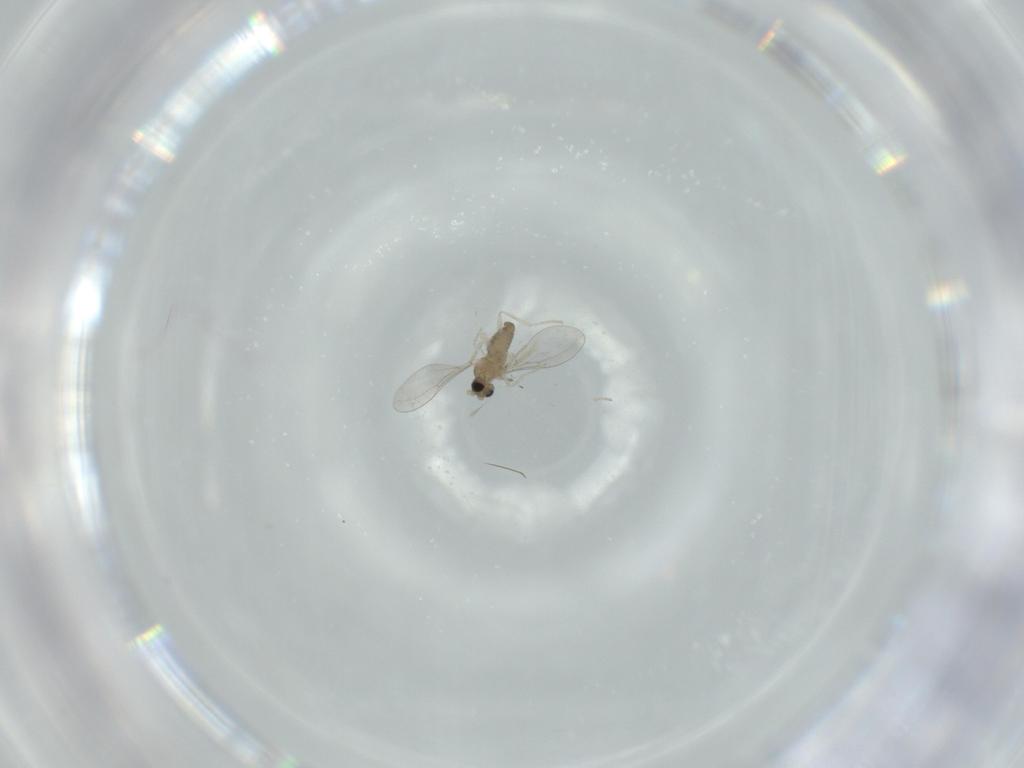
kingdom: Animalia
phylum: Arthropoda
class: Insecta
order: Diptera
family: Cecidomyiidae
